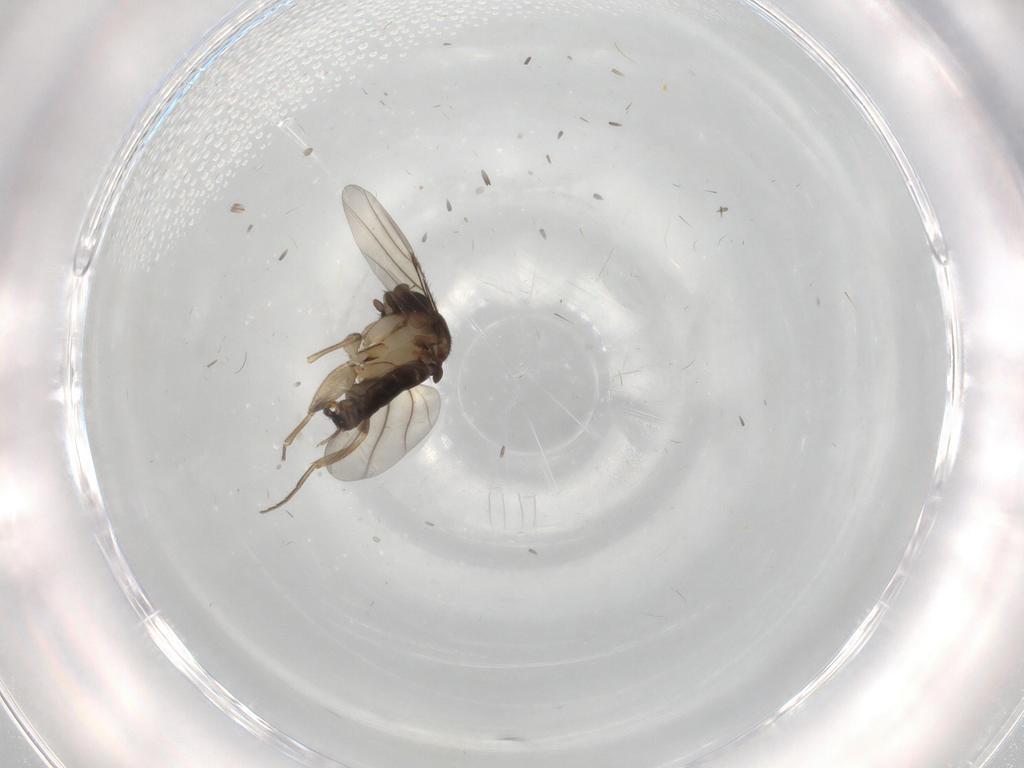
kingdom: Animalia
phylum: Arthropoda
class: Insecta
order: Diptera
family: Phoridae
